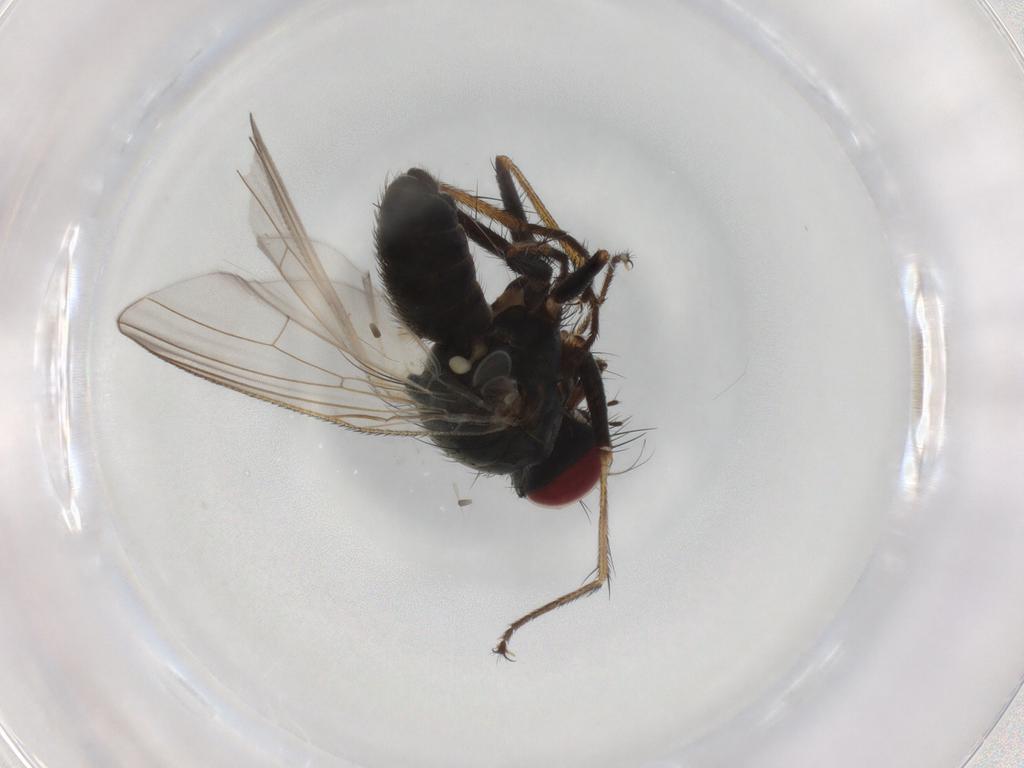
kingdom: Animalia
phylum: Arthropoda
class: Insecta
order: Diptera
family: Muscidae
